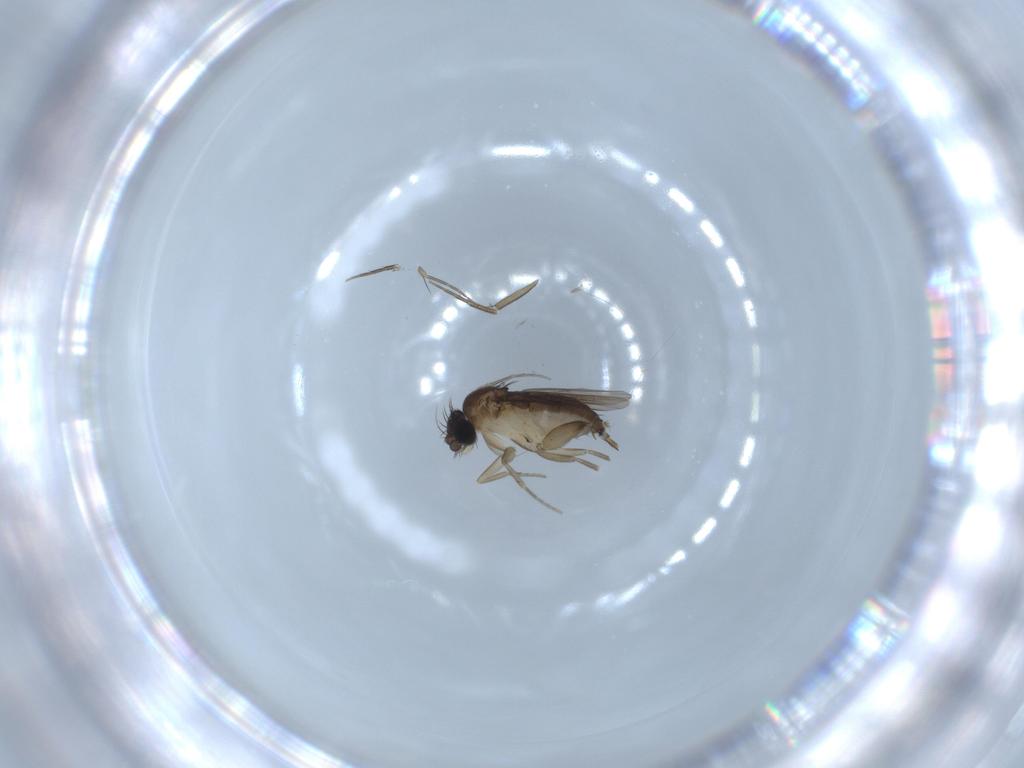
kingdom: Animalia
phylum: Arthropoda
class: Insecta
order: Diptera
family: Phoridae
